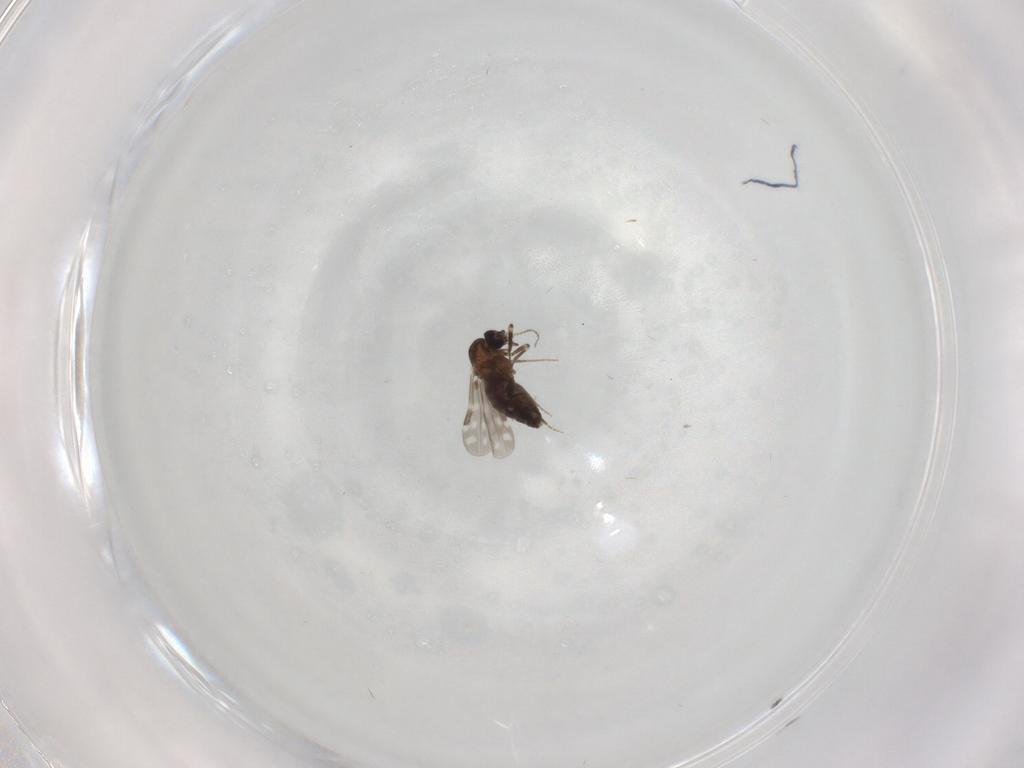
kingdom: Animalia
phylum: Arthropoda
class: Insecta
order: Diptera
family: Ceratopogonidae
